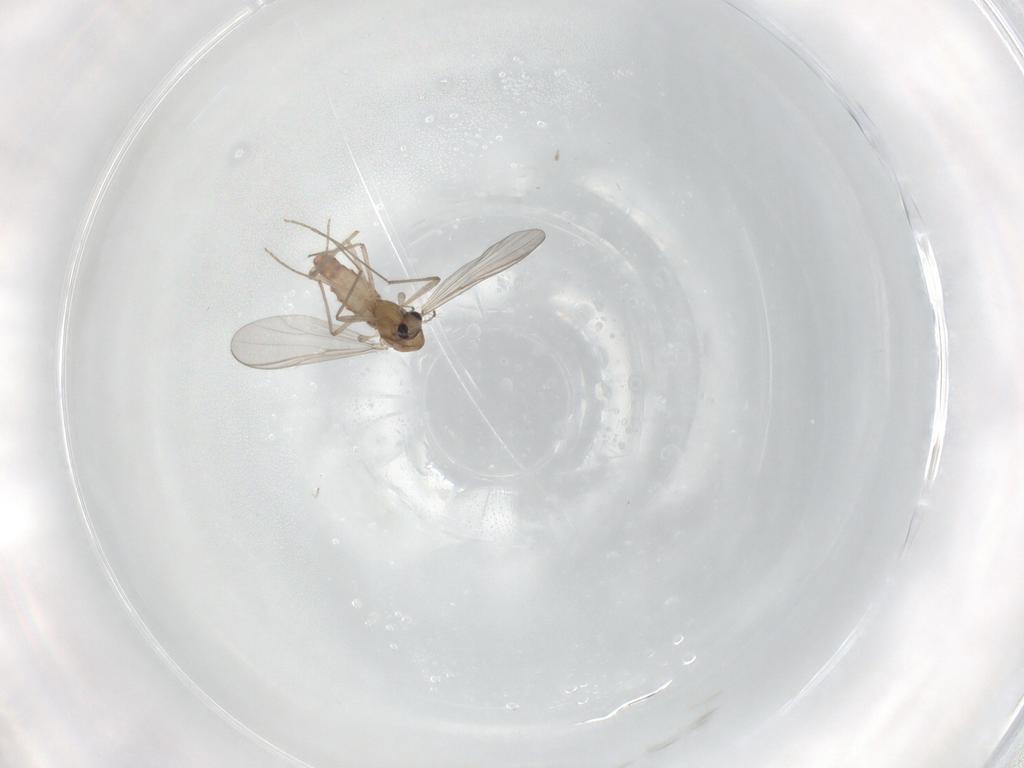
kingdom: Animalia
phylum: Arthropoda
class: Insecta
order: Diptera
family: Chironomidae
